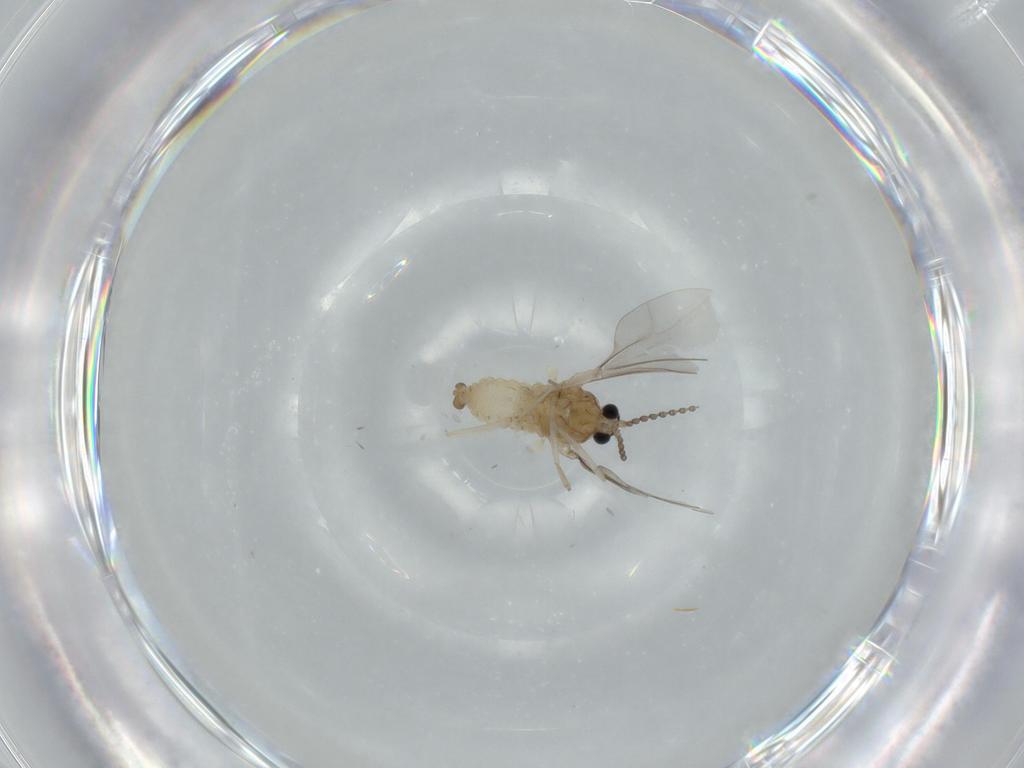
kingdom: Animalia
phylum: Arthropoda
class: Insecta
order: Diptera
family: Cecidomyiidae
